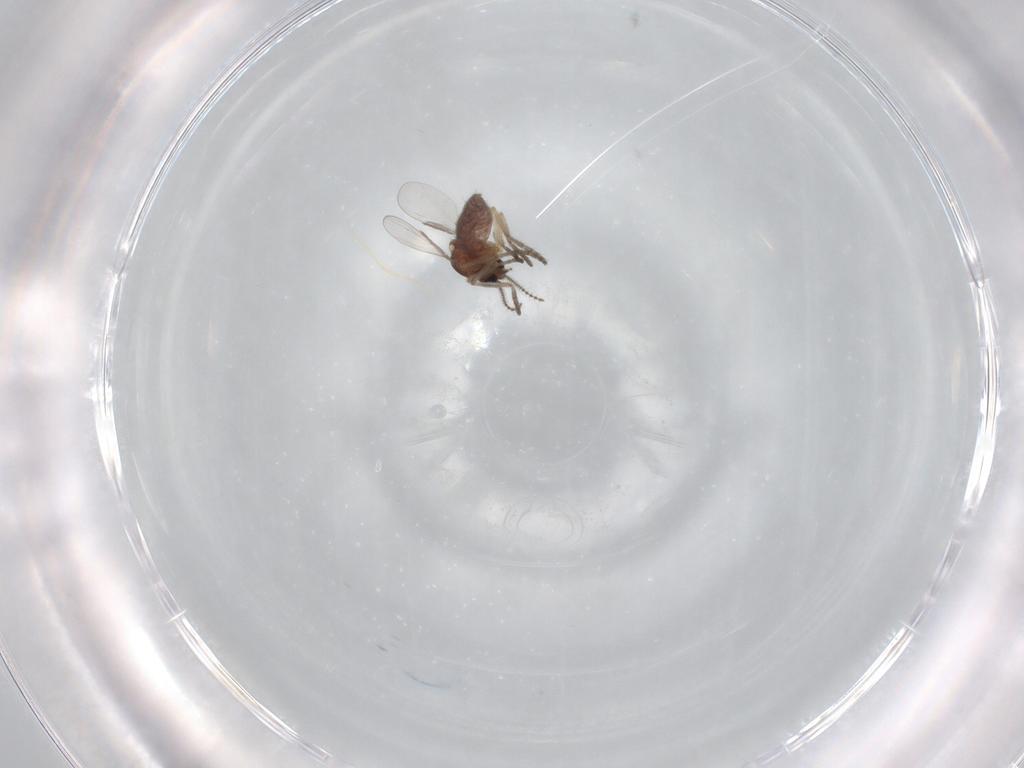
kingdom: Animalia
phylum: Arthropoda
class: Insecta
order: Diptera
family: Ceratopogonidae
